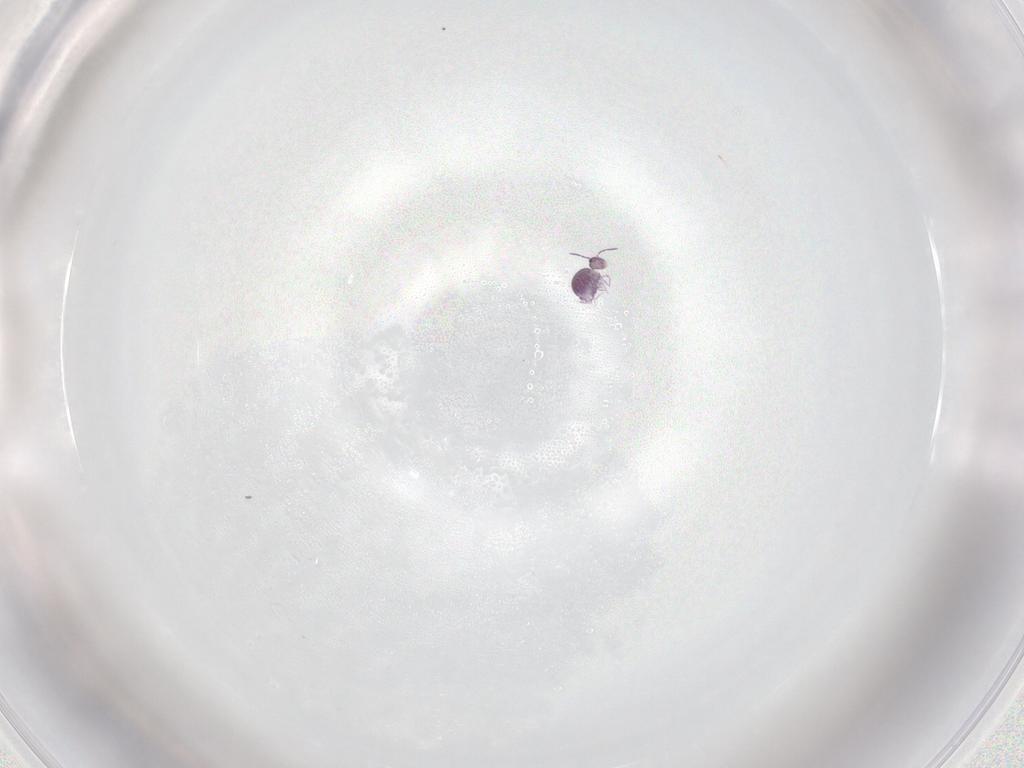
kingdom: Animalia
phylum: Arthropoda
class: Collembola
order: Symphypleona
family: Sminthurididae
